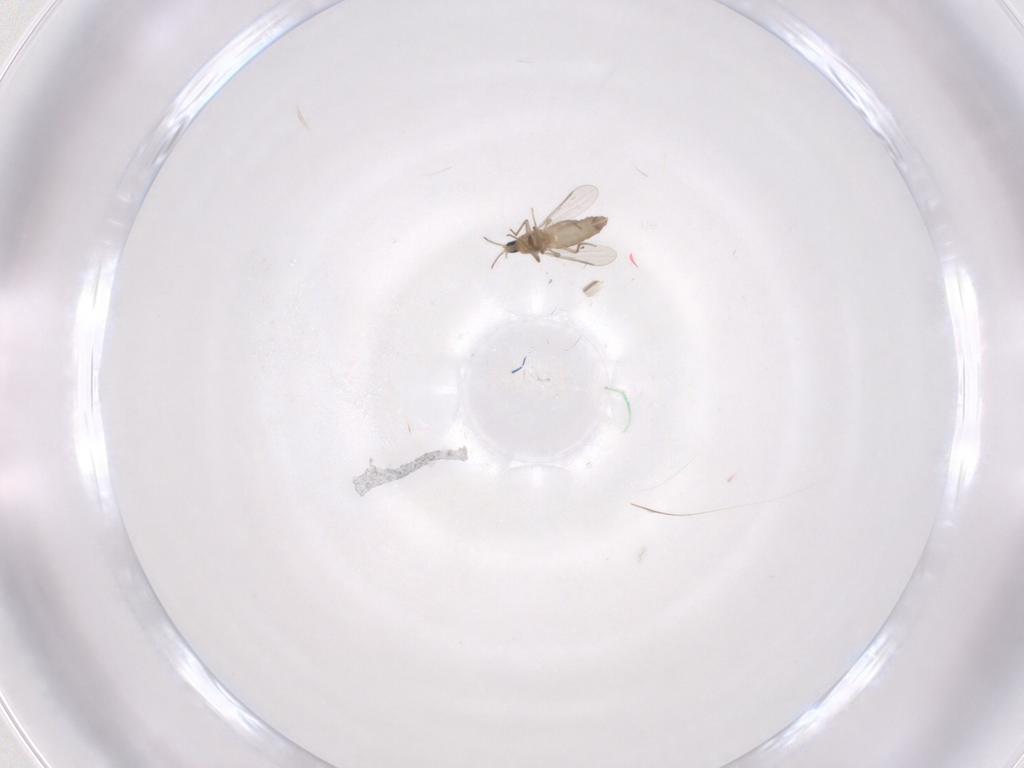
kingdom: Animalia
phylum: Arthropoda
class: Insecta
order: Diptera
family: Chironomidae
